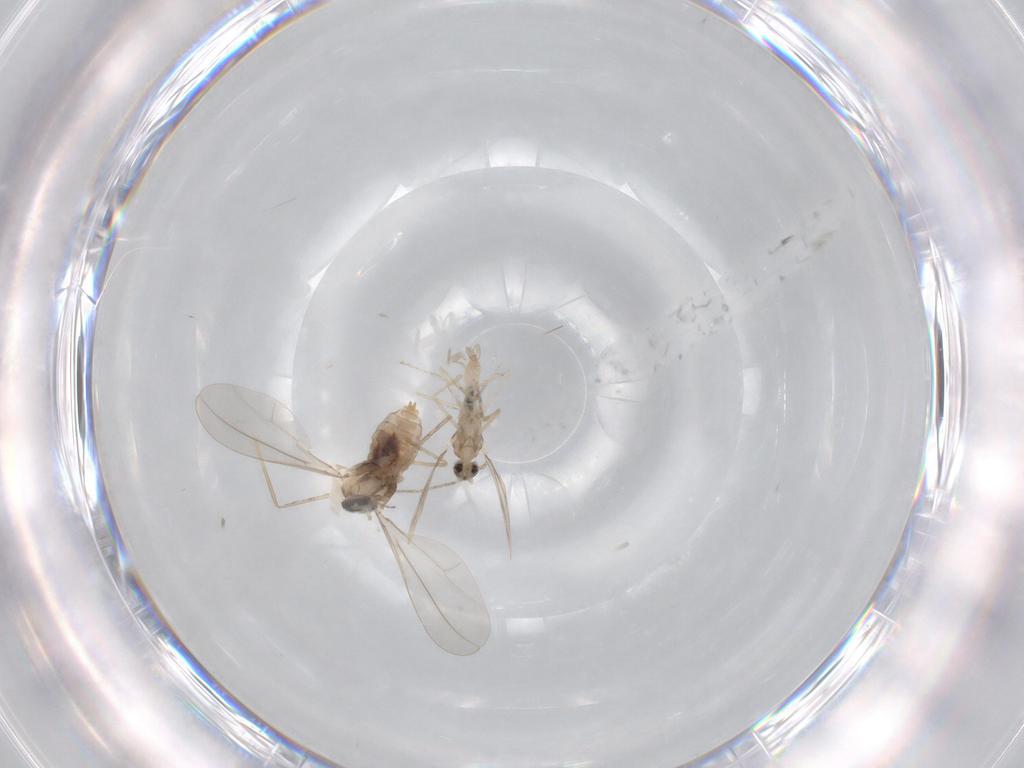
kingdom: Animalia
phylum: Arthropoda
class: Insecta
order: Diptera
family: Cecidomyiidae
